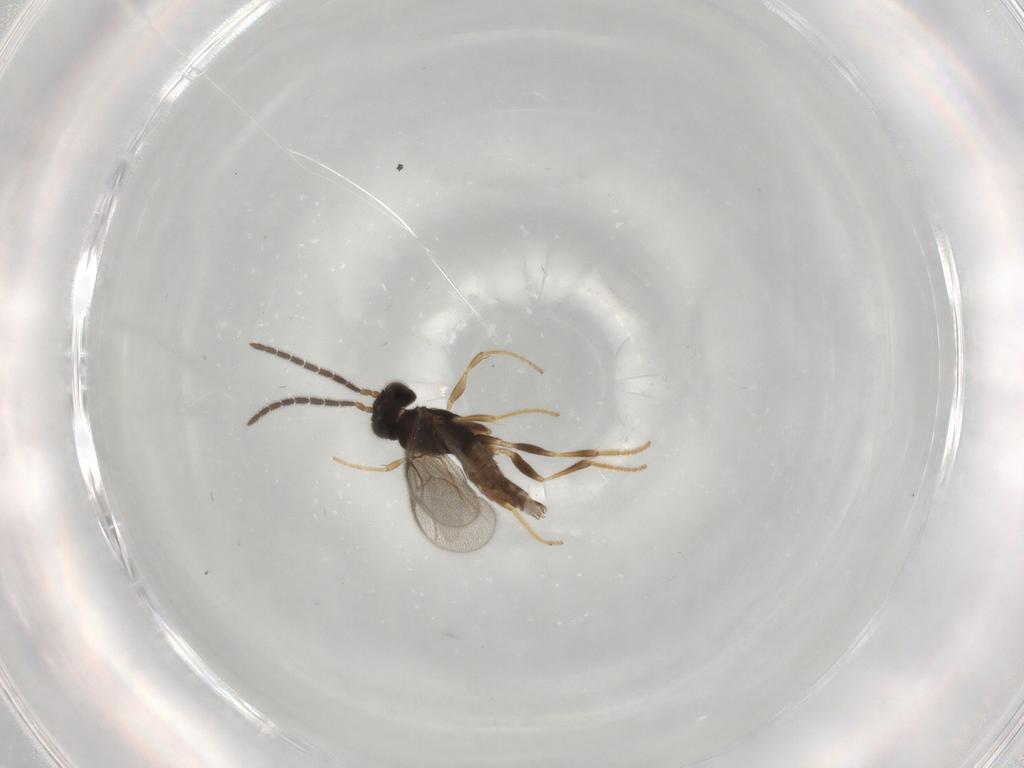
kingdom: Animalia
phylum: Arthropoda
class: Insecta
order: Hymenoptera
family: Dryinidae
